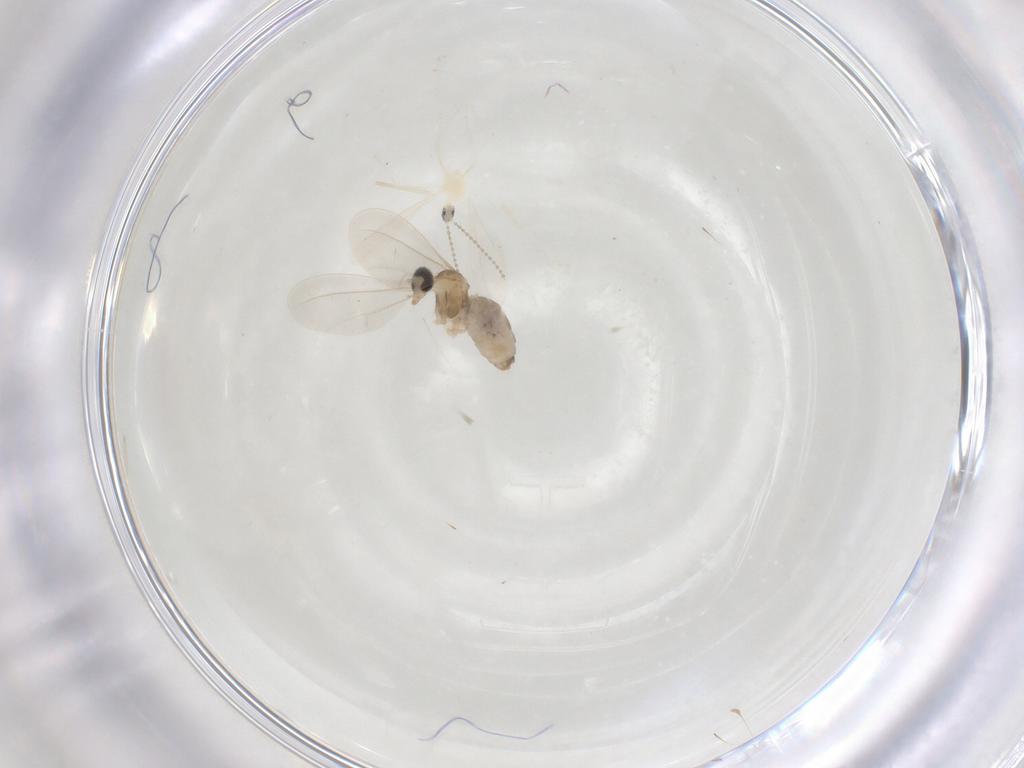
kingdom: Animalia
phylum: Arthropoda
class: Insecta
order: Diptera
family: Cecidomyiidae
